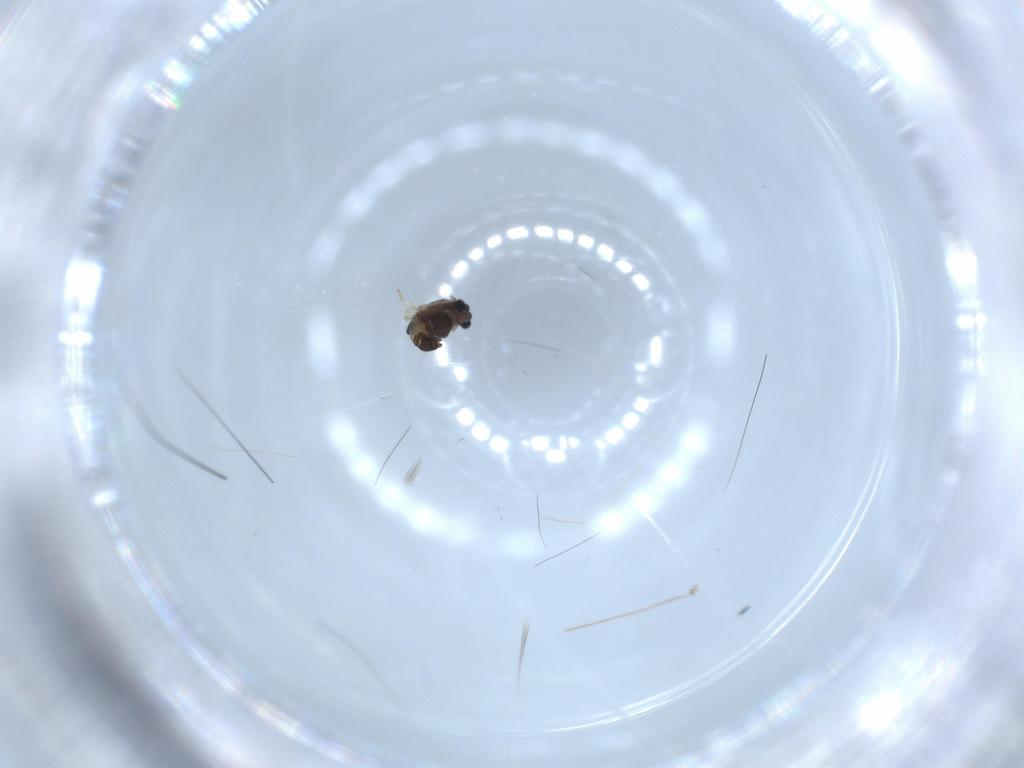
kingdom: Animalia
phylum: Arthropoda
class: Insecta
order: Diptera
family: Chironomidae
